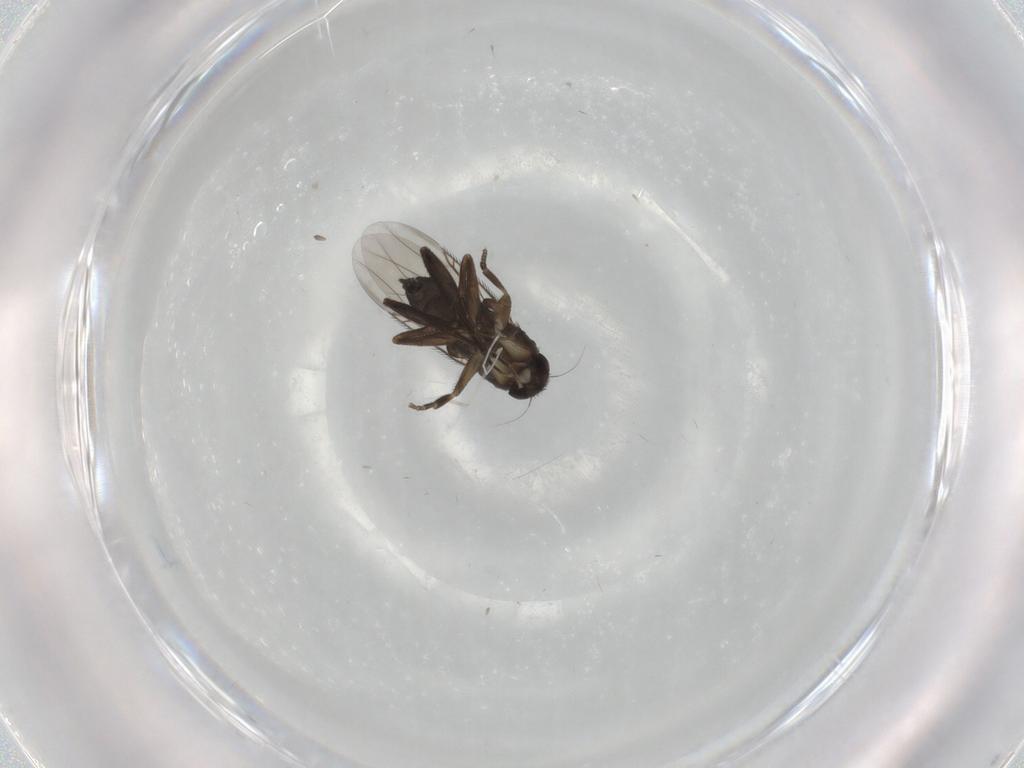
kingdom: Animalia
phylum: Arthropoda
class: Insecta
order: Diptera
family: Phoridae
